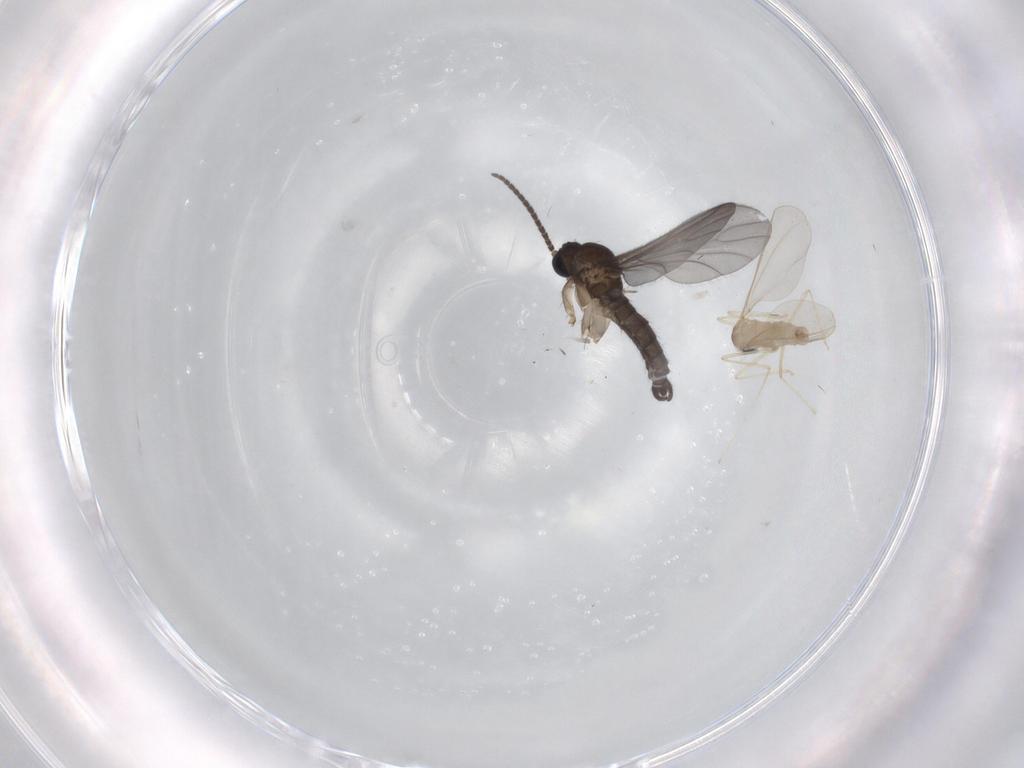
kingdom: Animalia
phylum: Arthropoda
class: Insecta
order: Diptera
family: Sciaridae
